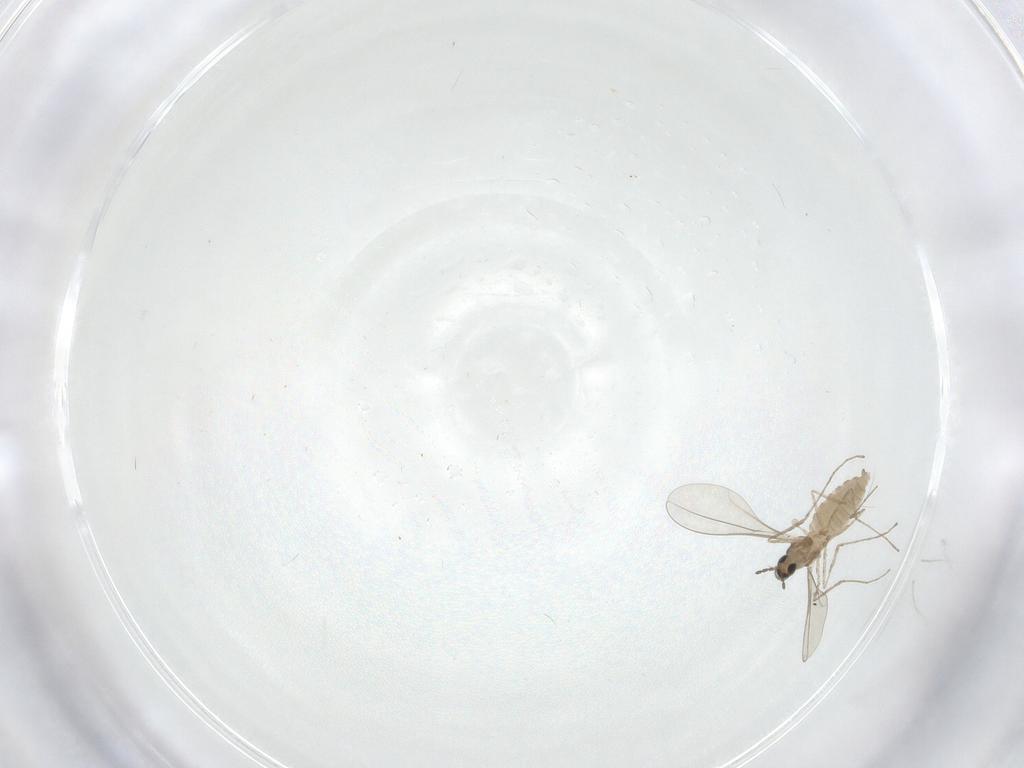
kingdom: Animalia
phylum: Arthropoda
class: Insecta
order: Diptera
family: Cecidomyiidae
